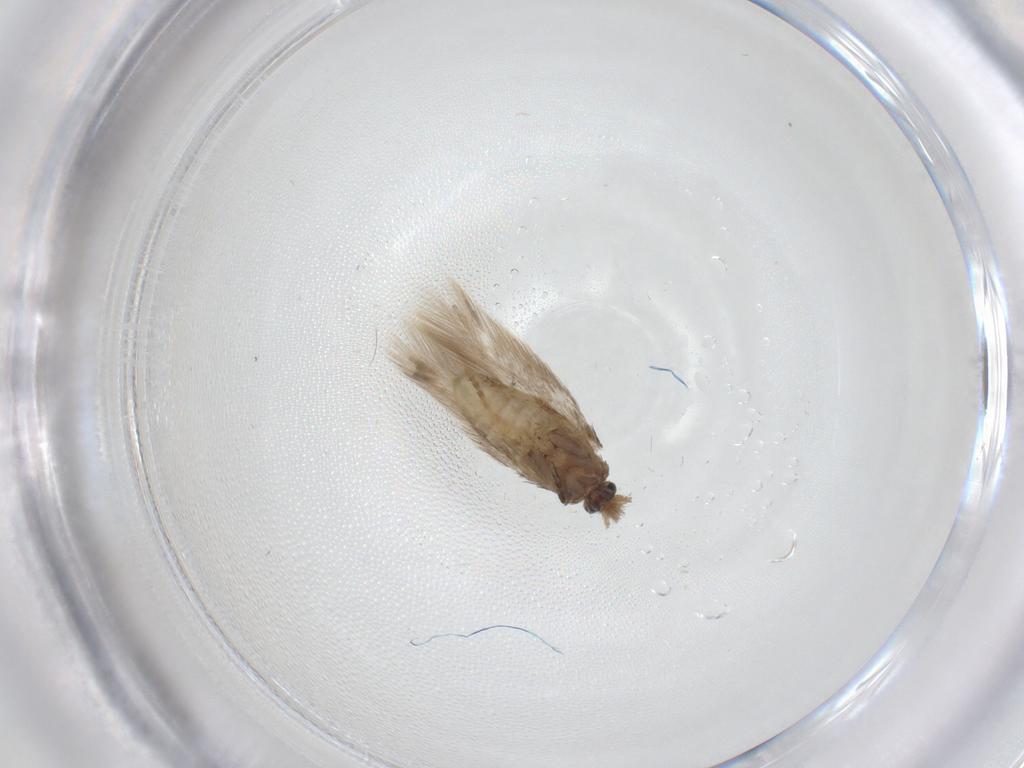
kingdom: Animalia
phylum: Arthropoda
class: Insecta
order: Lepidoptera
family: Nepticulidae
